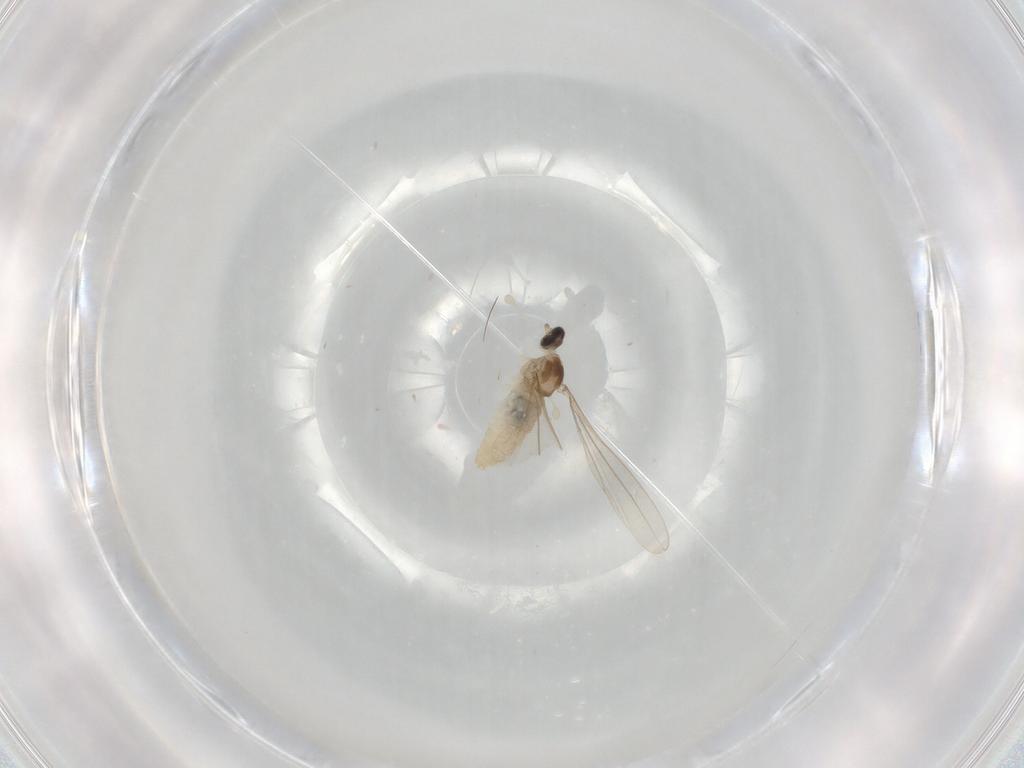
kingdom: Animalia
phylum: Arthropoda
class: Insecta
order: Diptera
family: Cecidomyiidae
